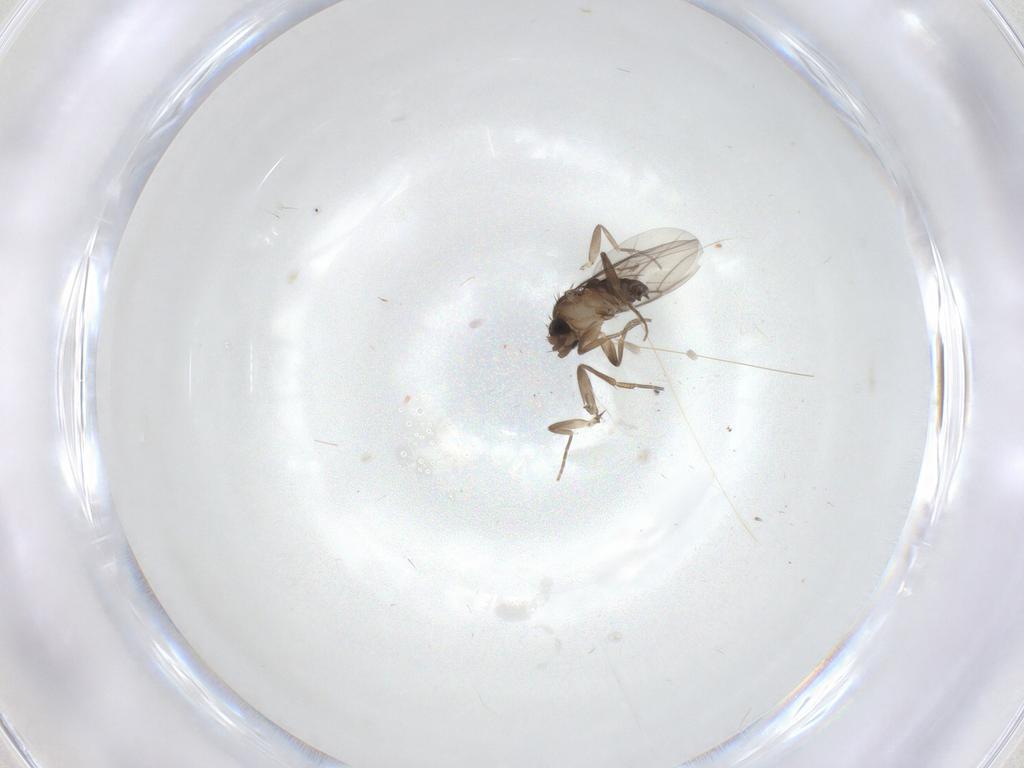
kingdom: Animalia
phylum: Arthropoda
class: Insecta
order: Diptera
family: Phoridae
